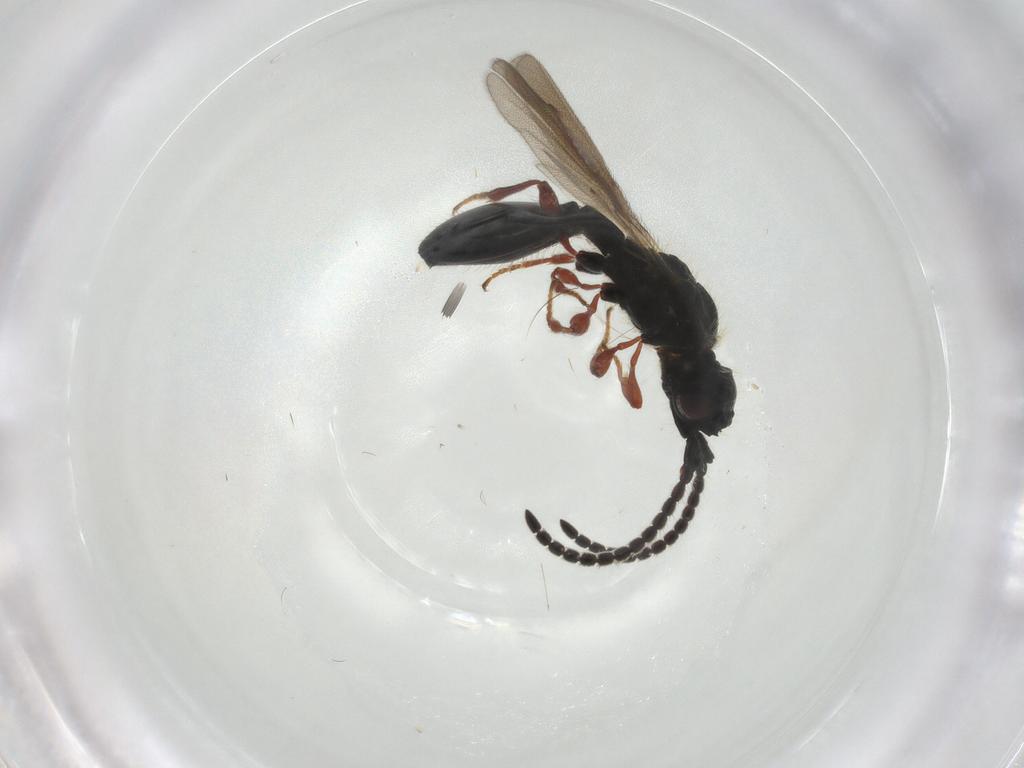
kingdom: Animalia
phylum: Arthropoda
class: Insecta
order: Hymenoptera
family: Diapriidae
